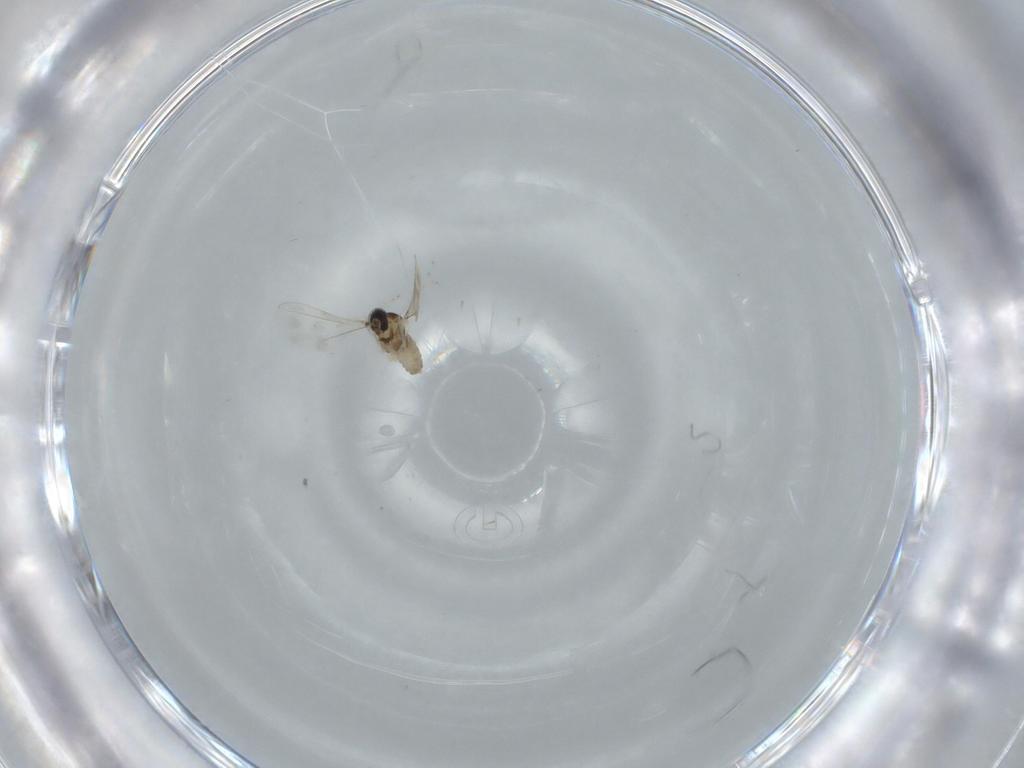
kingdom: Animalia
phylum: Arthropoda
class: Insecta
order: Diptera
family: Cecidomyiidae
